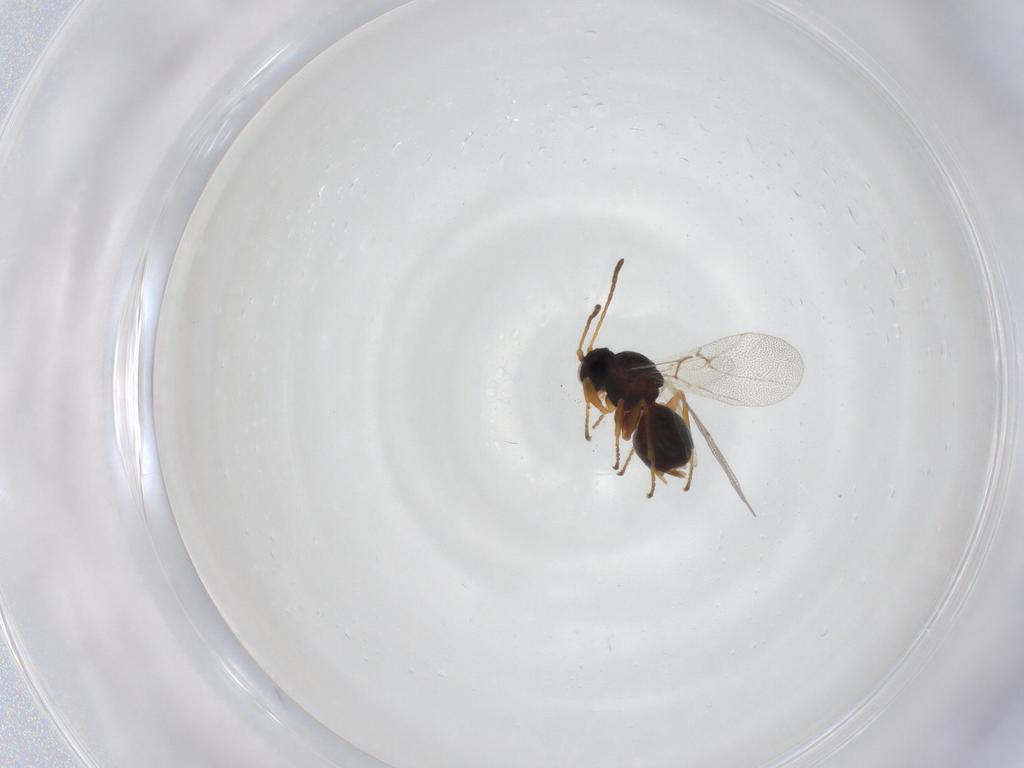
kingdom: Animalia
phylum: Arthropoda
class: Insecta
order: Hymenoptera
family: Cynipidae
